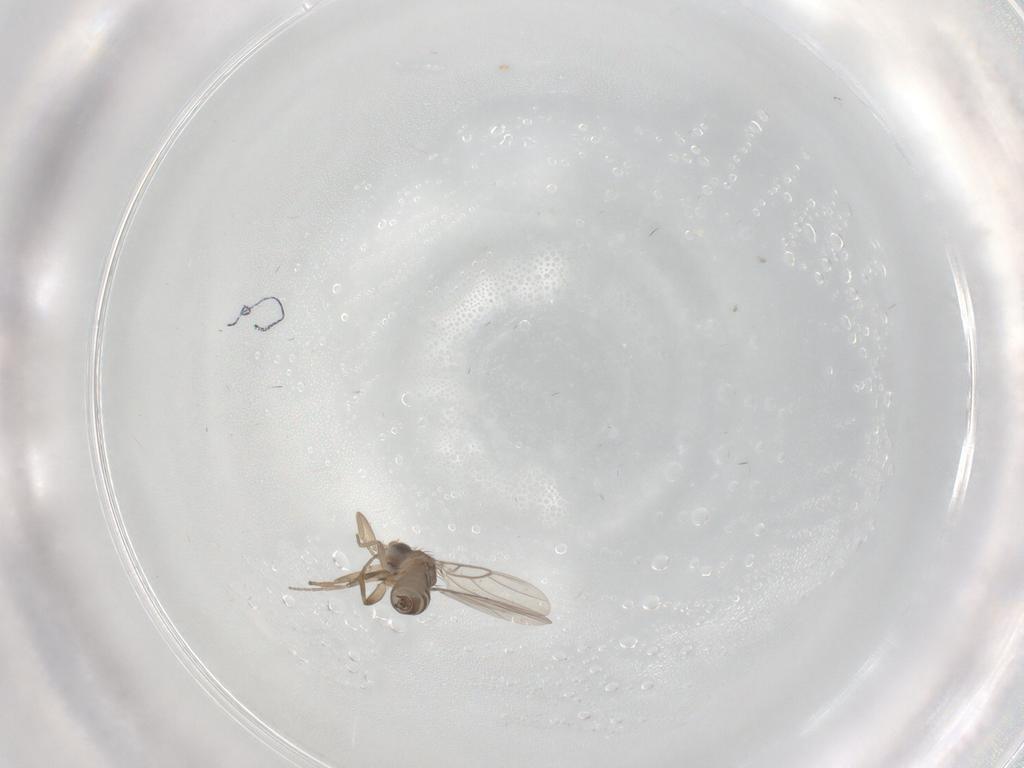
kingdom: Animalia
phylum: Arthropoda
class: Insecta
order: Diptera
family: Phoridae
